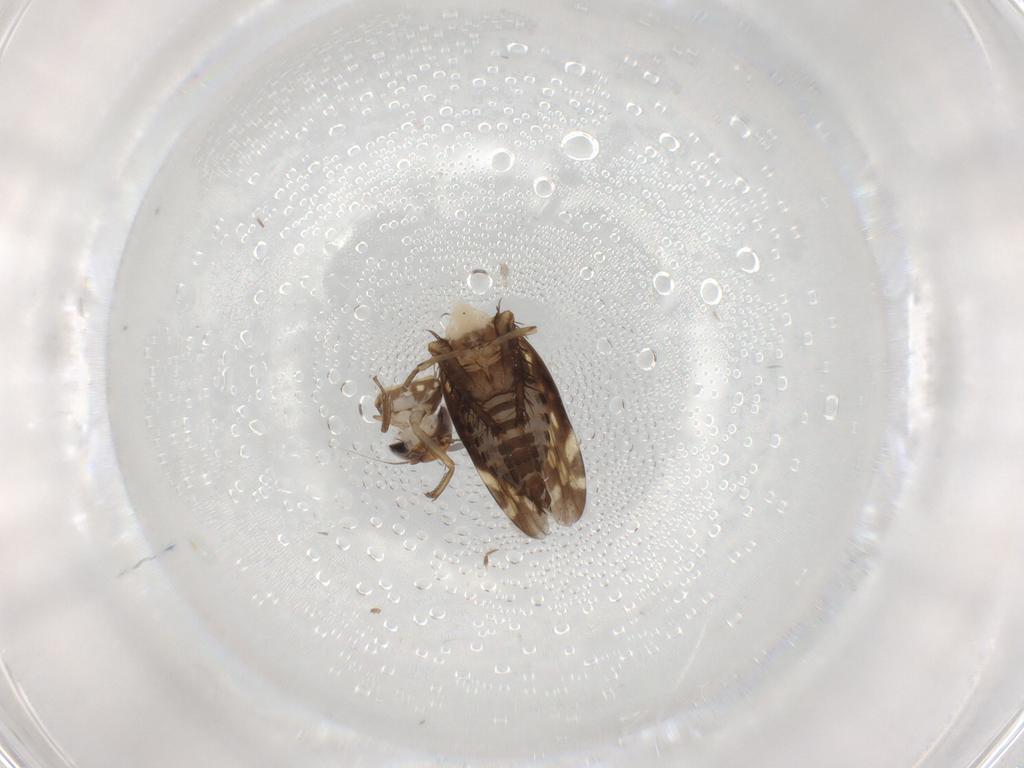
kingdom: Animalia
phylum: Arthropoda
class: Insecta
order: Hemiptera
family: Cicadellidae
